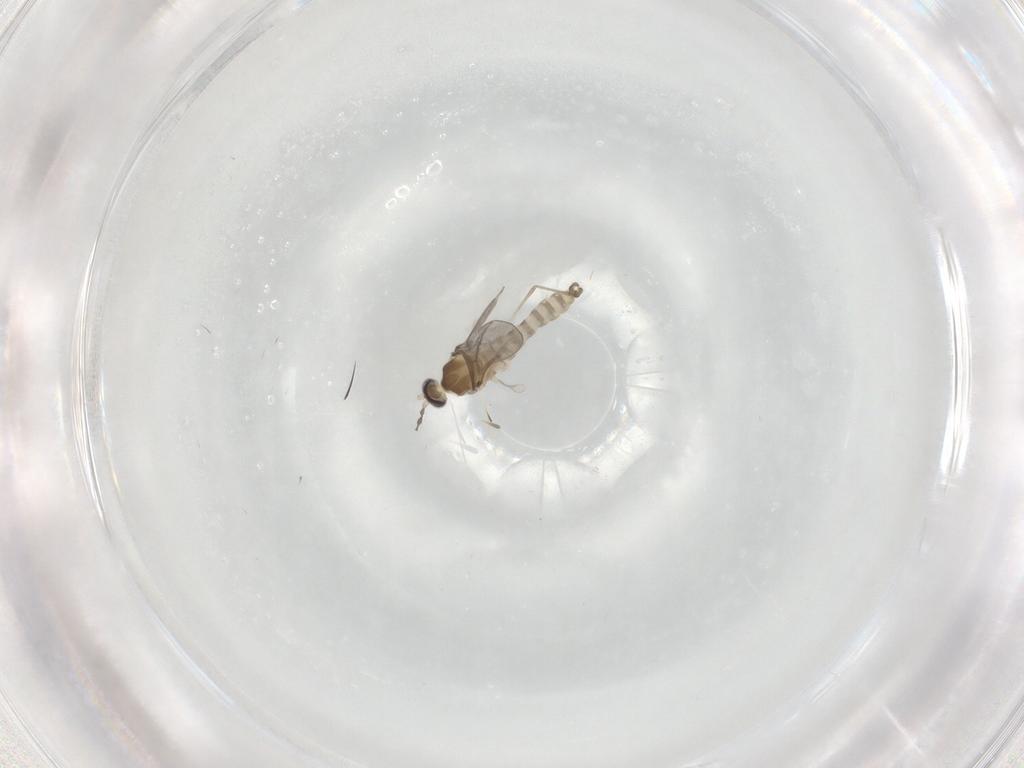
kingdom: Animalia
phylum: Arthropoda
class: Insecta
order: Diptera
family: Cecidomyiidae
